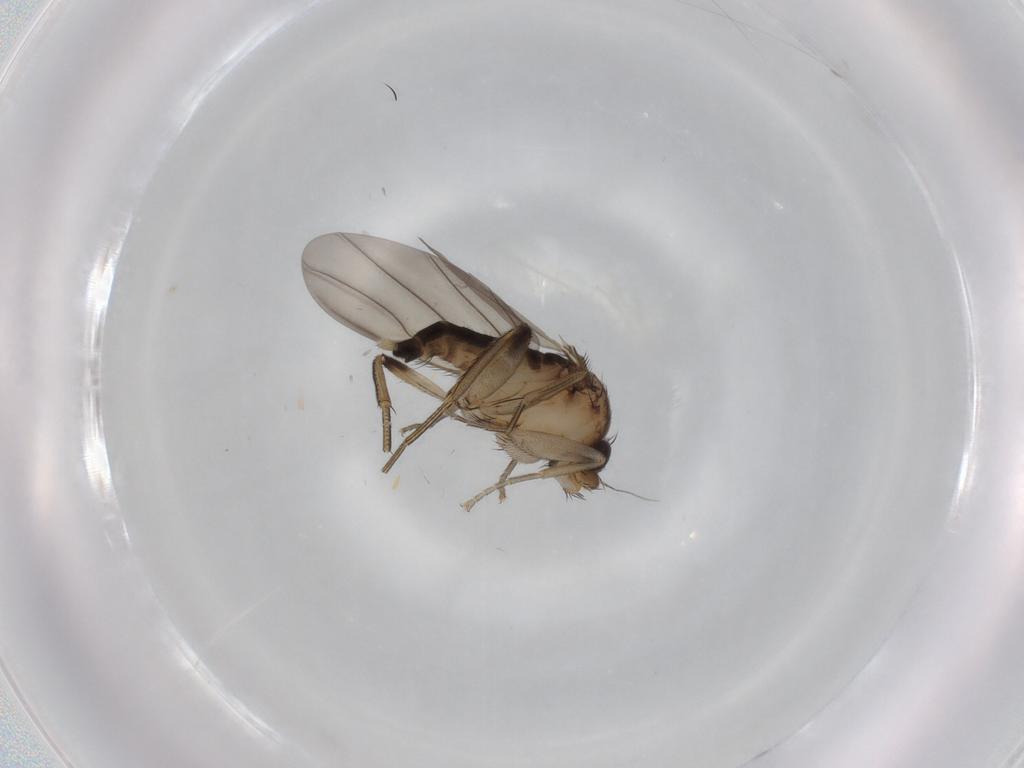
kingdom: Animalia
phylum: Arthropoda
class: Insecta
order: Diptera
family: Phoridae
